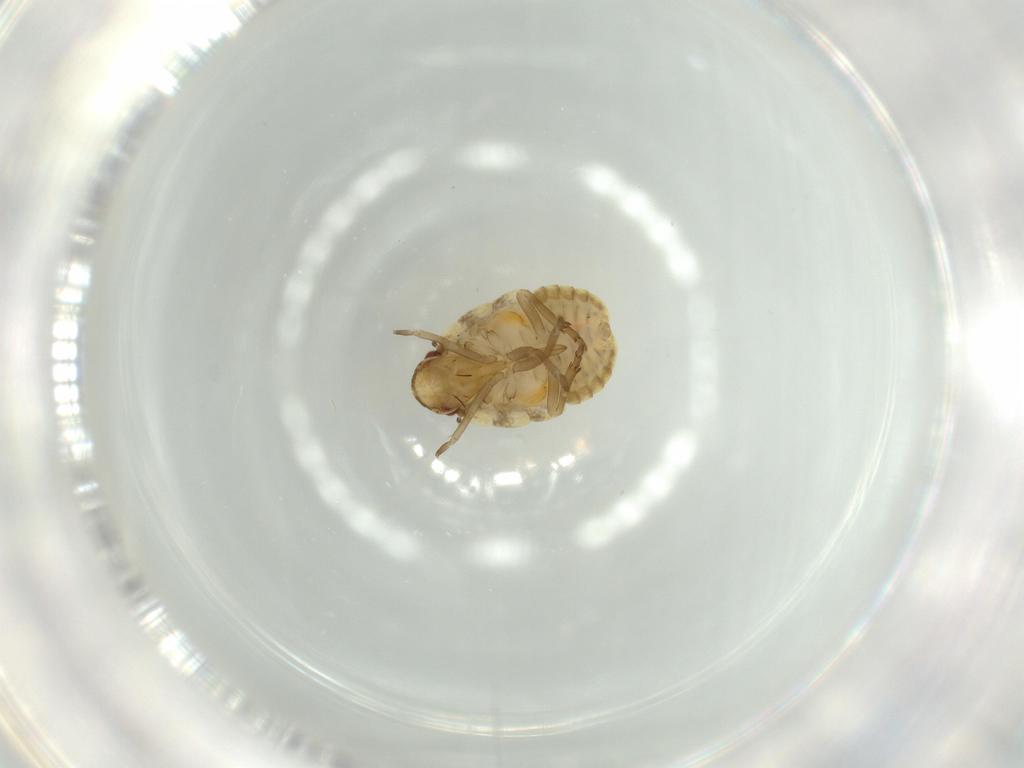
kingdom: Animalia
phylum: Arthropoda
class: Insecta
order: Hemiptera
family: Flatidae
